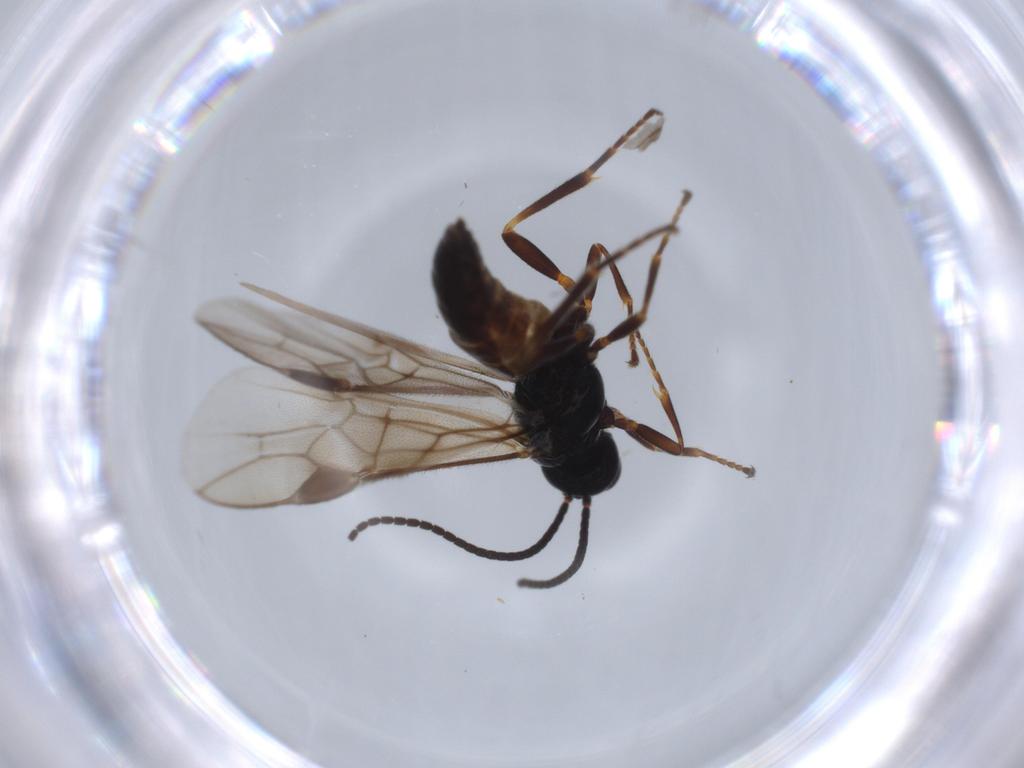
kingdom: Animalia
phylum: Arthropoda
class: Insecta
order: Hymenoptera
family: Braconidae
